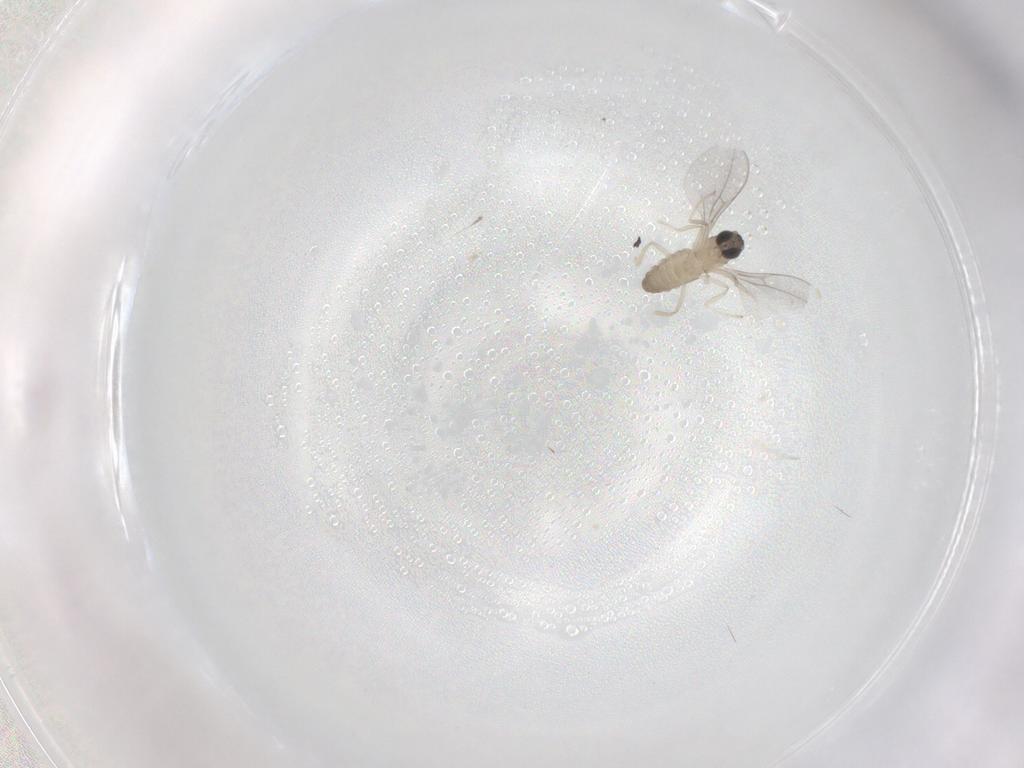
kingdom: Animalia
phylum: Arthropoda
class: Insecta
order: Diptera
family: Cecidomyiidae
